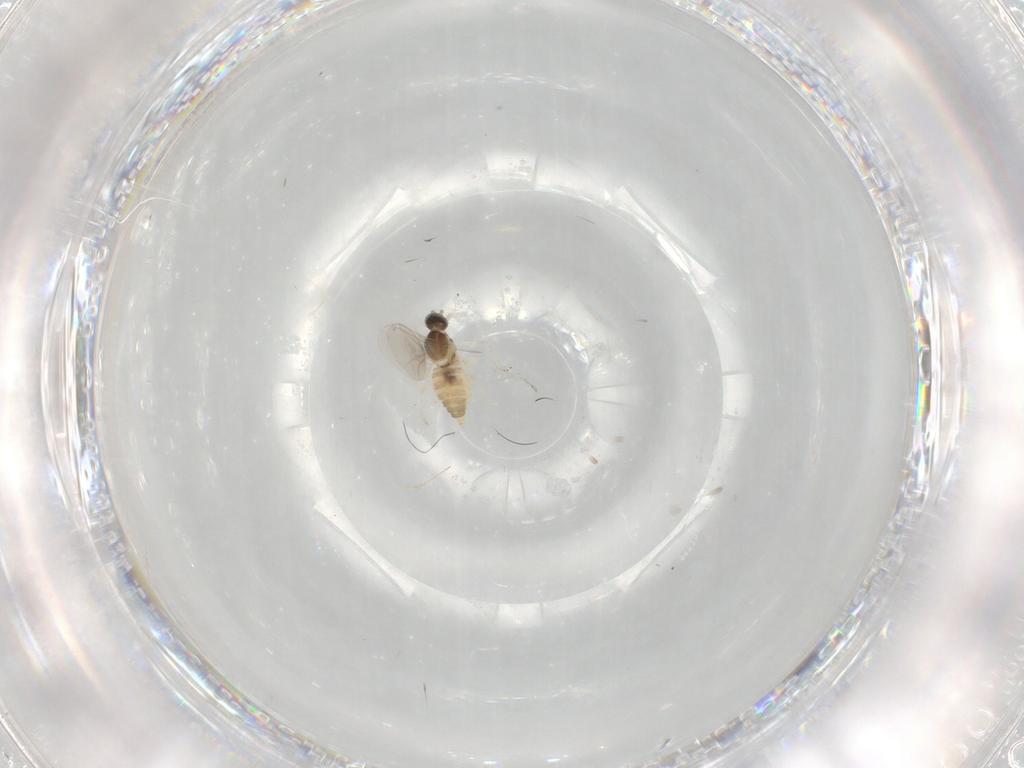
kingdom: Animalia
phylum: Arthropoda
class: Insecta
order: Diptera
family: Cecidomyiidae
